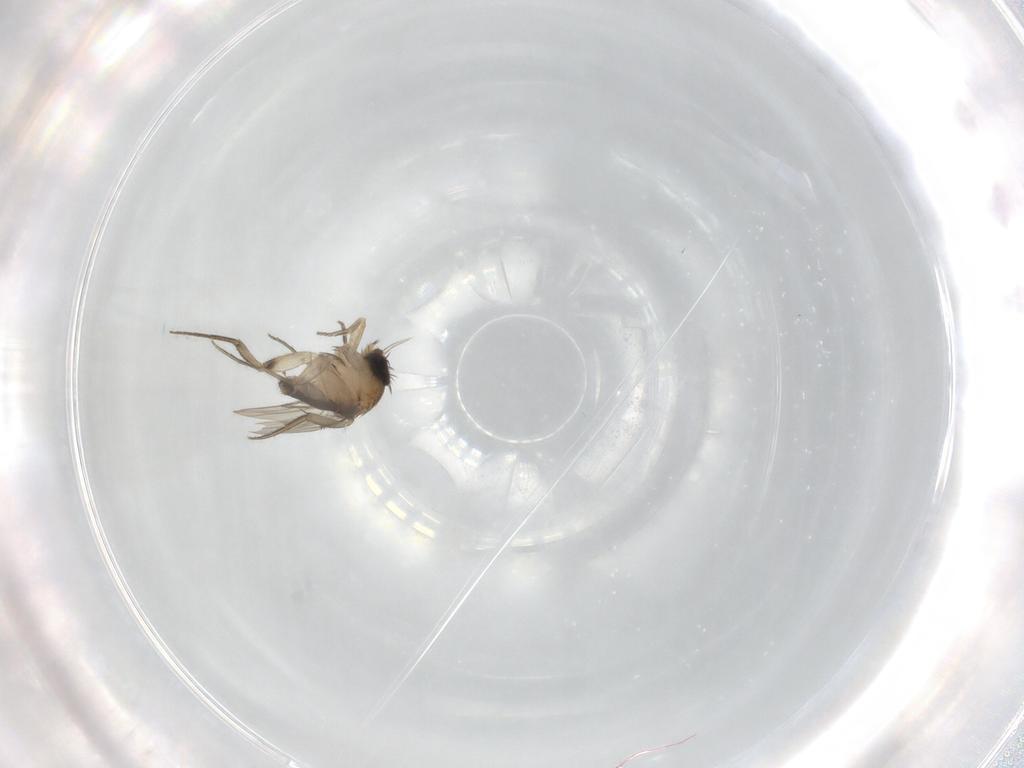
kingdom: Animalia
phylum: Arthropoda
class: Insecta
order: Diptera
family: Phoridae
